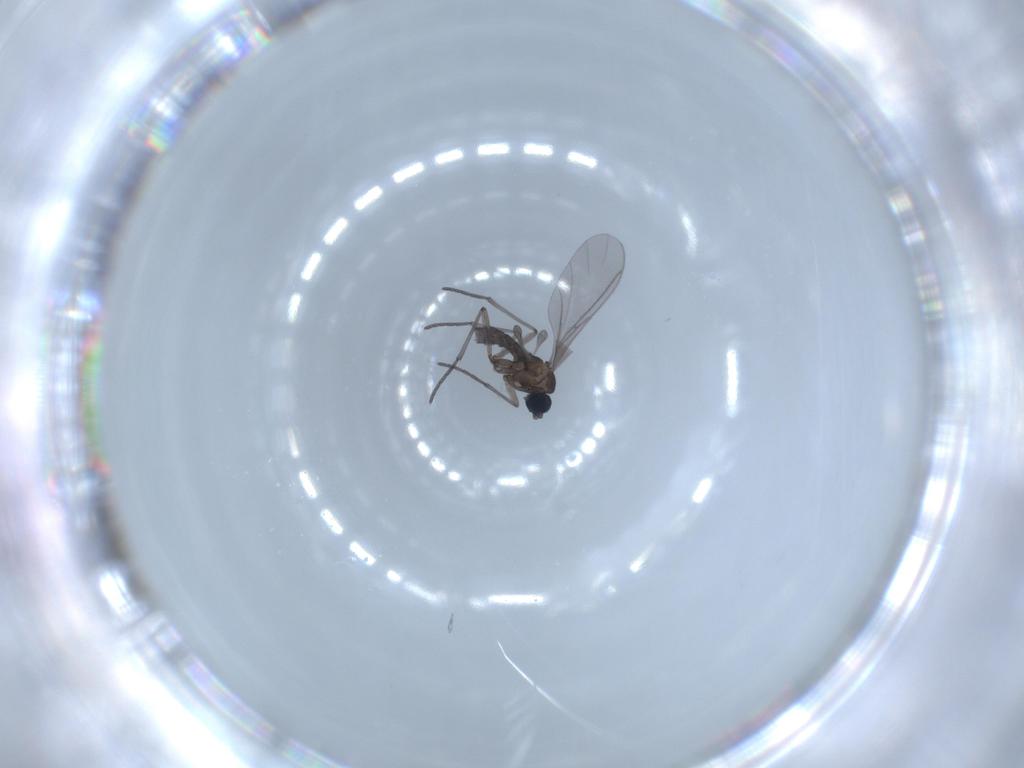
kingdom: Animalia
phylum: Arthropoda
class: Insecta
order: Diptera
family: Sciaridae
